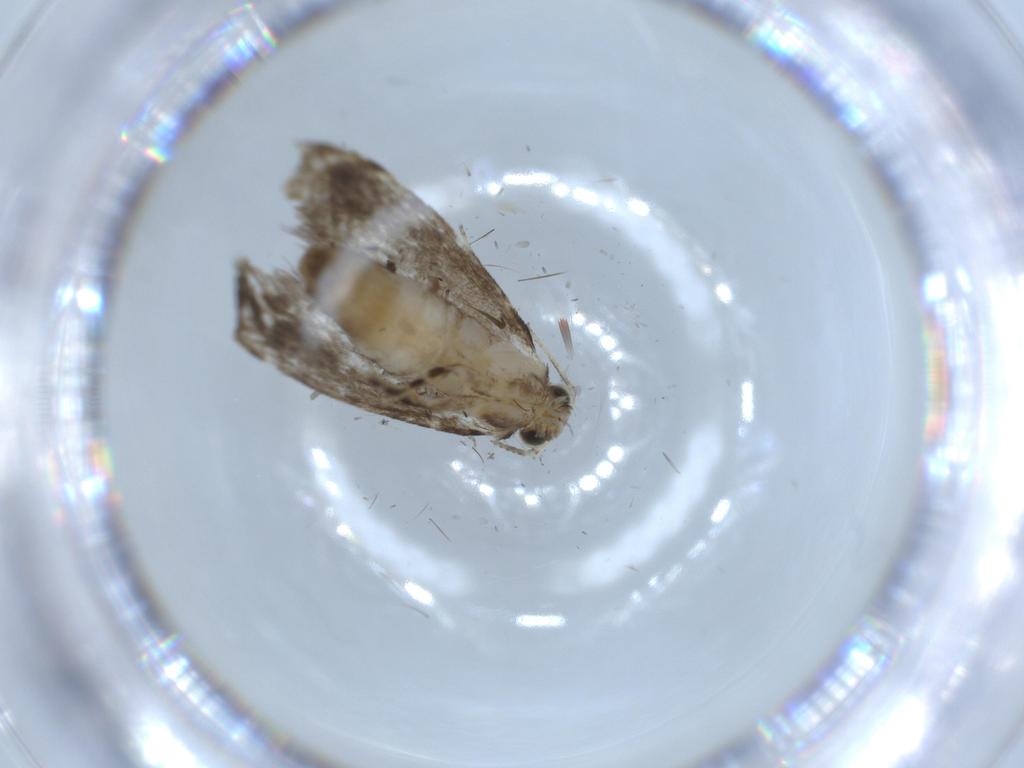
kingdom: Animalia
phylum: Arthropoda
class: Insecta
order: Lepidoptera
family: Tineidae
